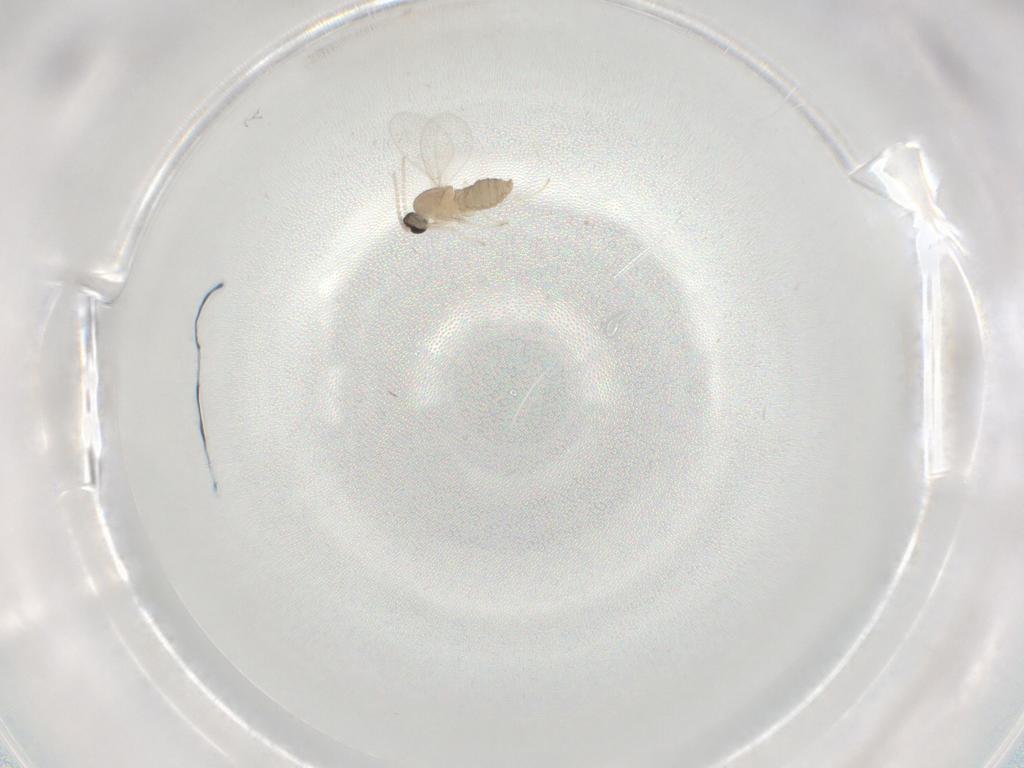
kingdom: Animalia
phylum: Arthropoda
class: Insecta
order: Diptera
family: Cecidomyiidae
